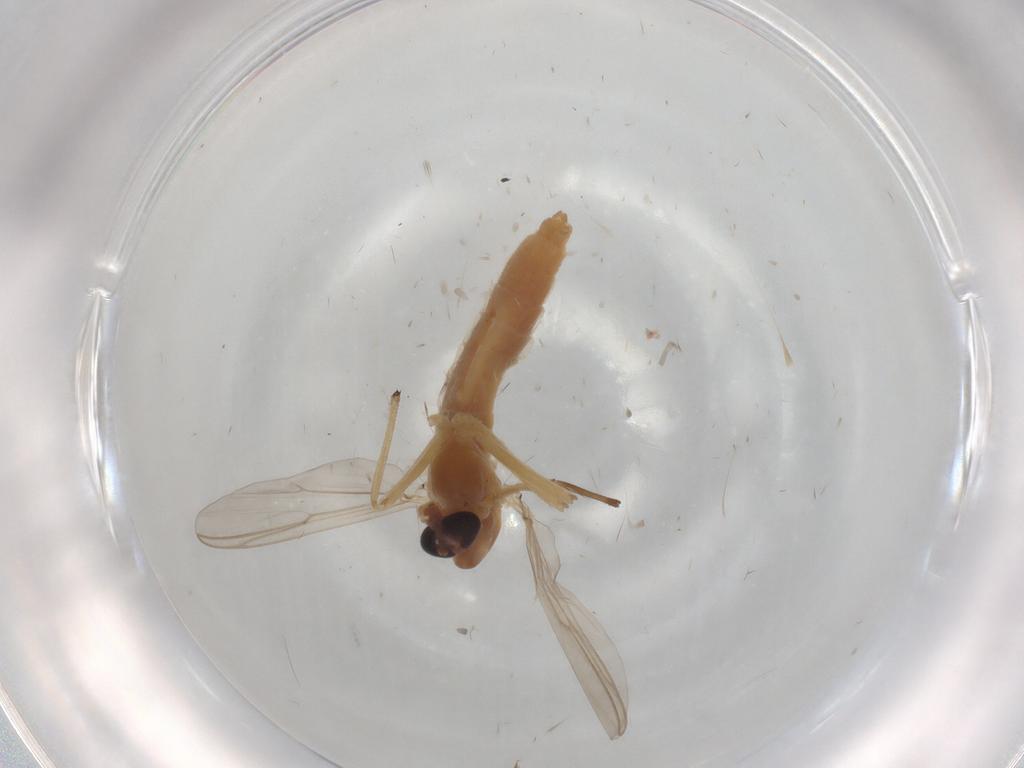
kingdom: Animalia
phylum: Arthropoda
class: Insecta
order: Diptera
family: Chironomidae
